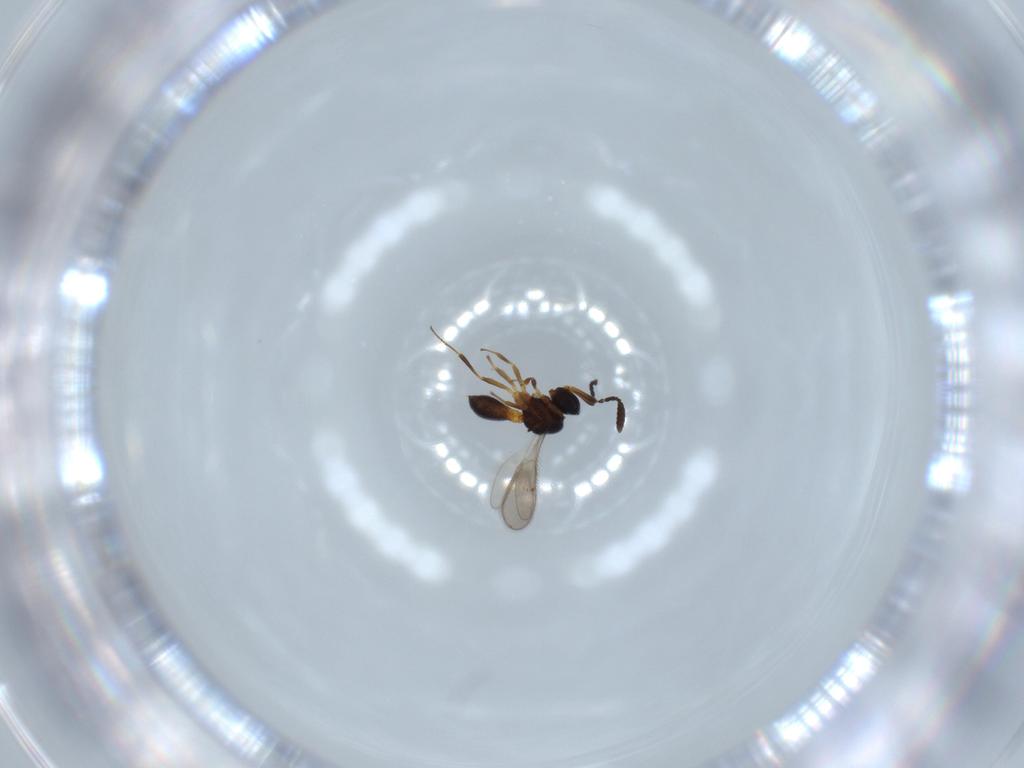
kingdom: Animalia
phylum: Arthropoda
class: Insecta
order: Hymenoptera
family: Scelionidae
